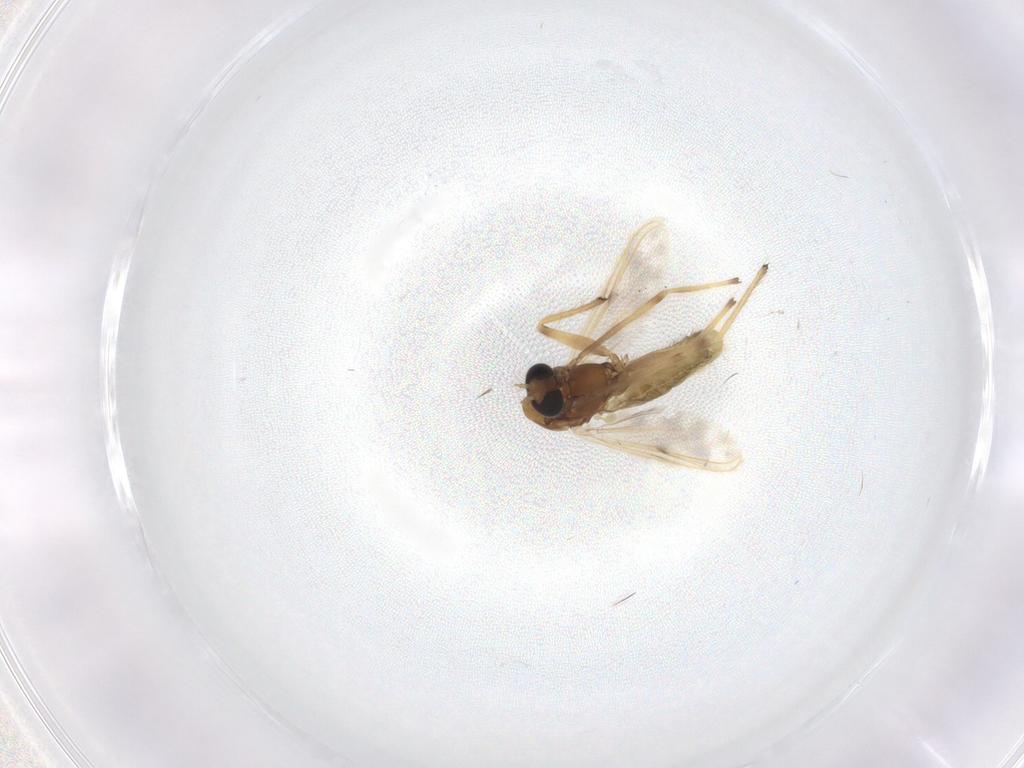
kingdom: Animalia
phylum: Arthropoda
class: Insecta
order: Diptera
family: Chironomidae
